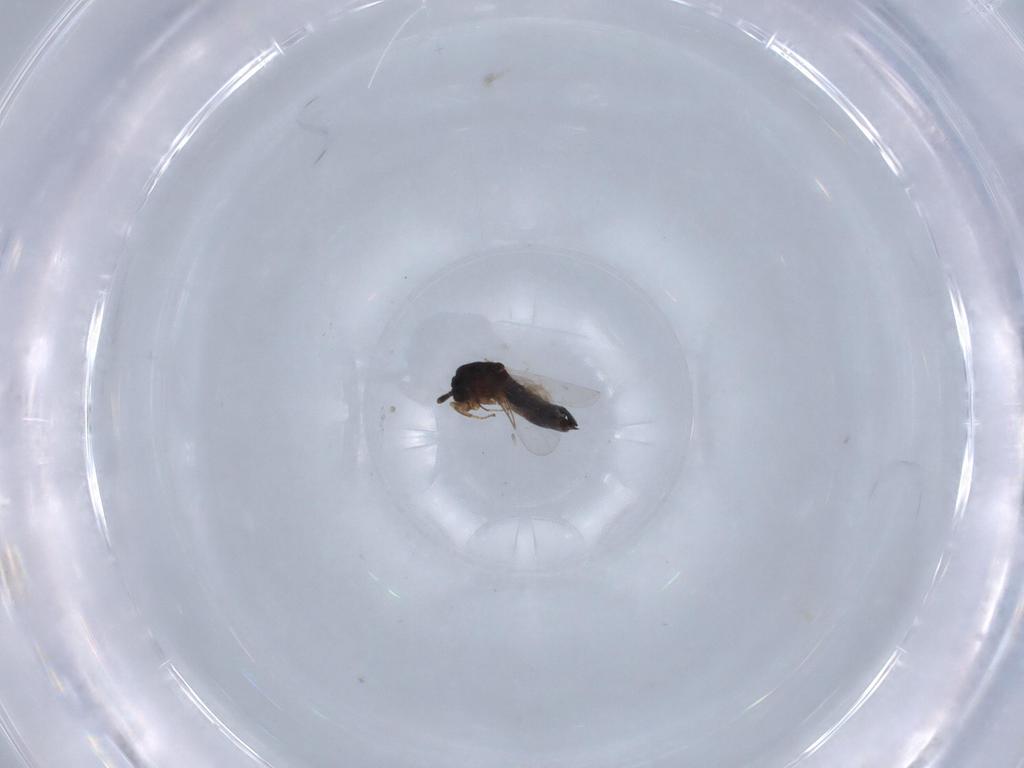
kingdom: Animalia
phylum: Arthropoda
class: Insecta
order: Diptera
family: Scatopsidae
